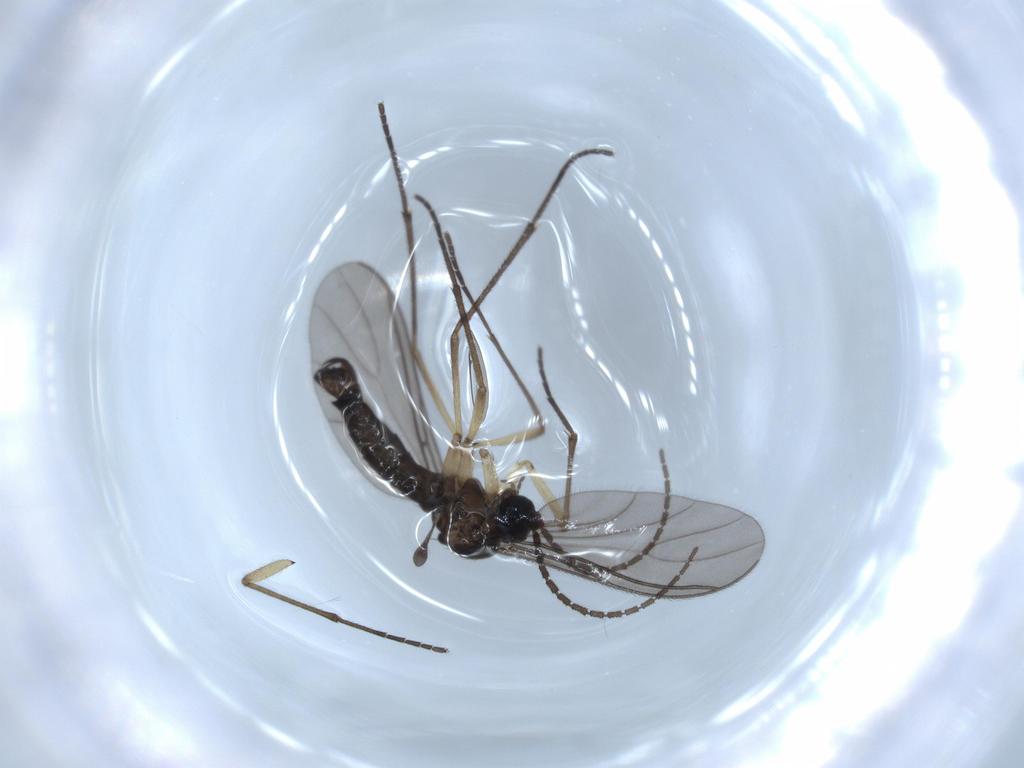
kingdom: Animalia
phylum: Arthropoda
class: Insecta
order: Diptera
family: Sciaridae
